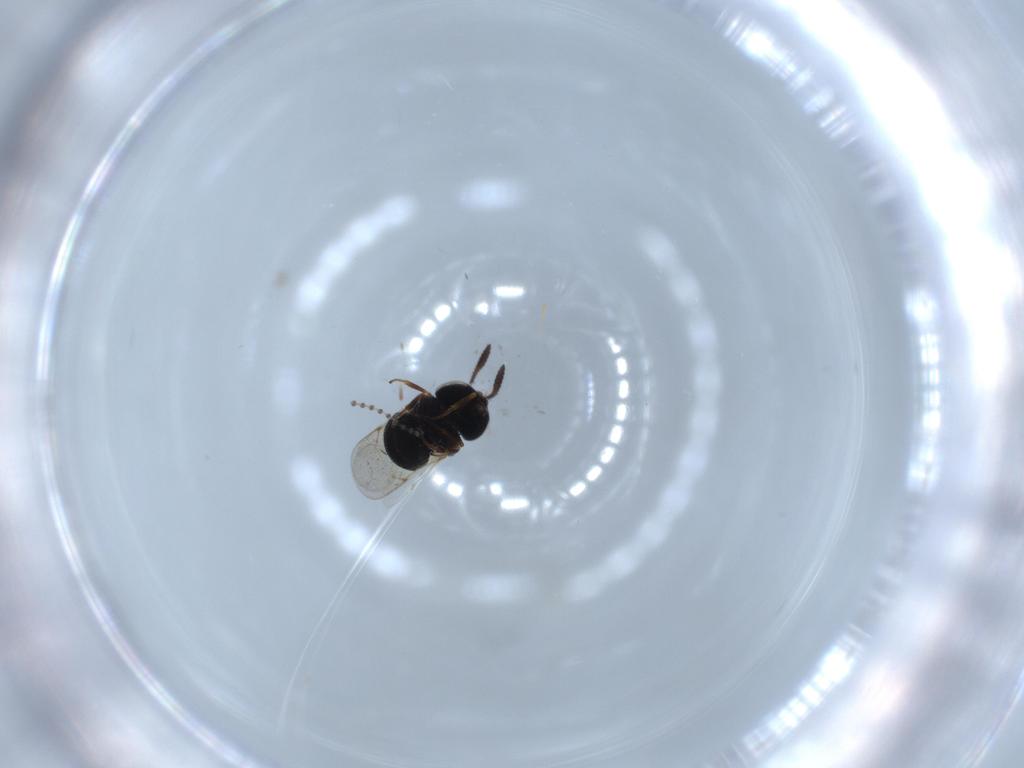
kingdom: Animalia
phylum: Arthropoda
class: Insecta
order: Hymenoptera
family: Scelionidae
